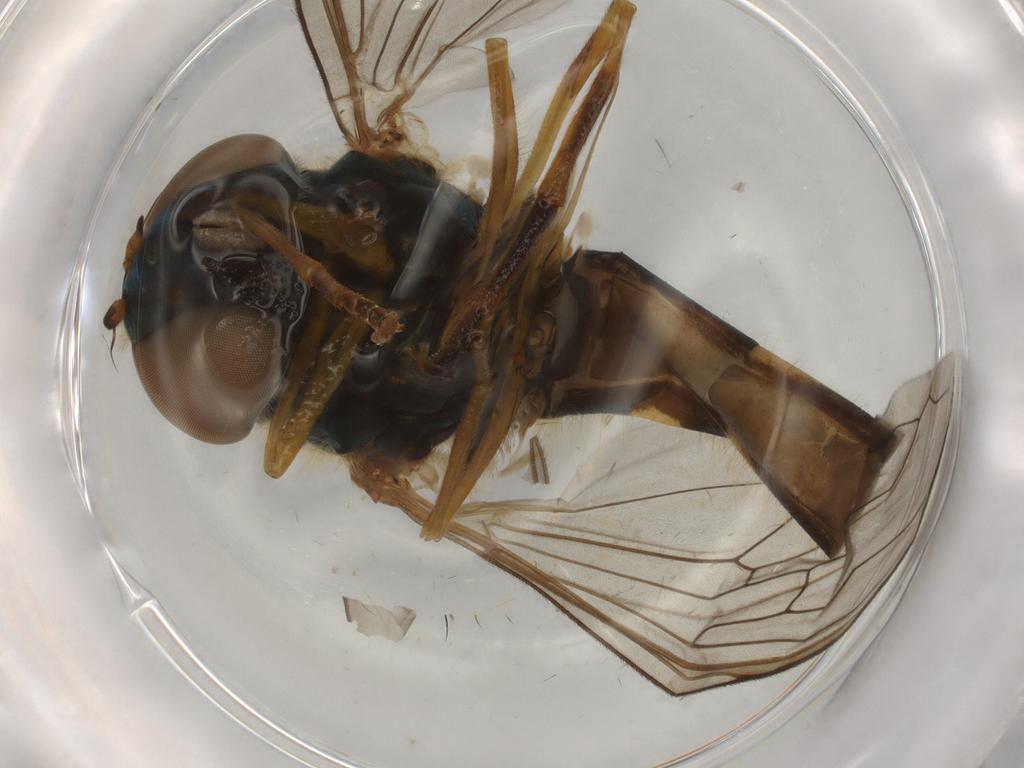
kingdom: Animalia
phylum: Arthropoda
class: Insecta
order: Diptera
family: Syrphidae
